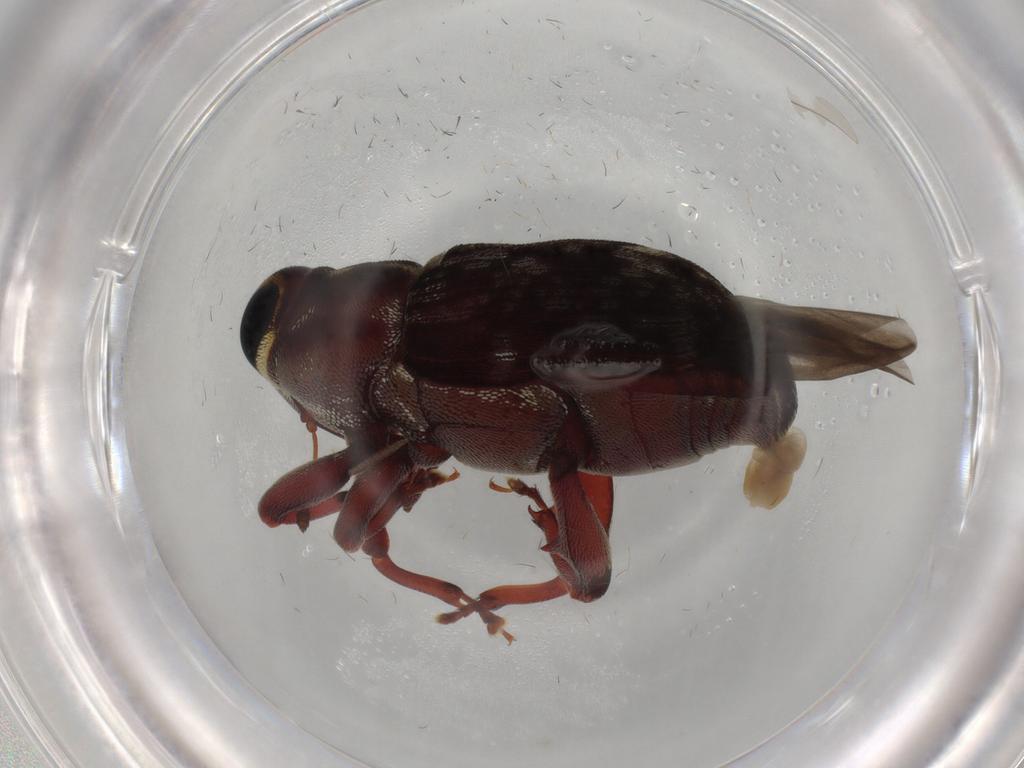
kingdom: Animalia
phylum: Arthropoda
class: Insecta
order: Coleoptera
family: Curculionidae
